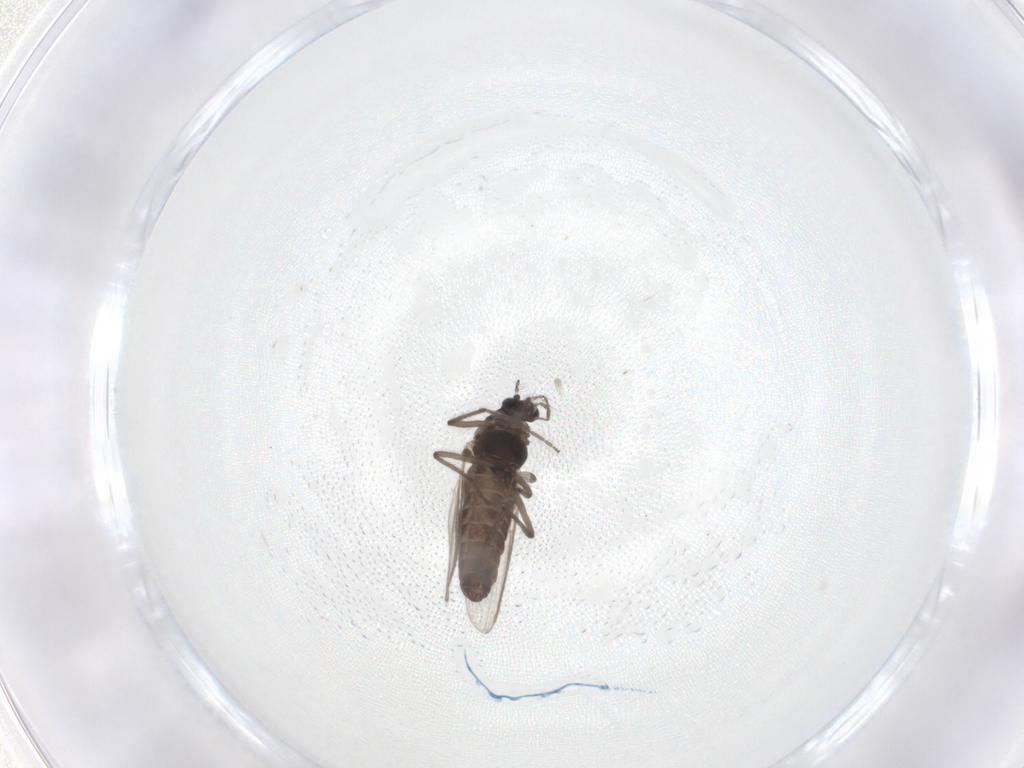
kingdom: Animalia
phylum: Arthropoda
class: Insecta
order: Diptera
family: Chironomidae
